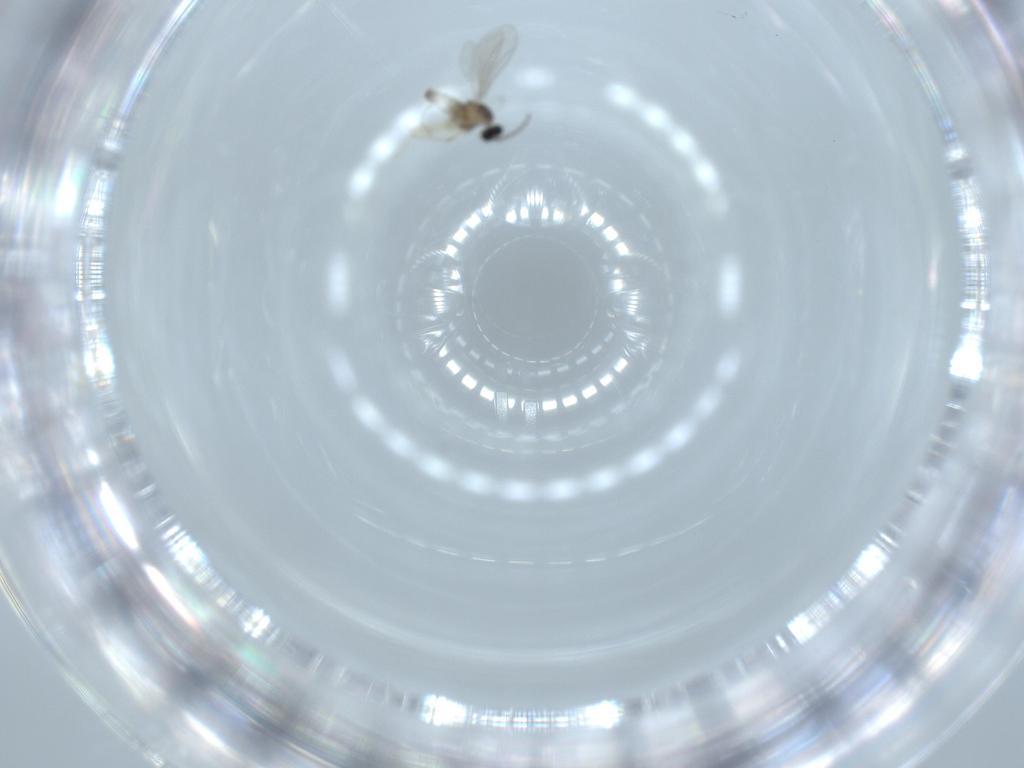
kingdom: Animalia
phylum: Arthropoda
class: Insecta
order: Diptera
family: Cecidomyiidae
